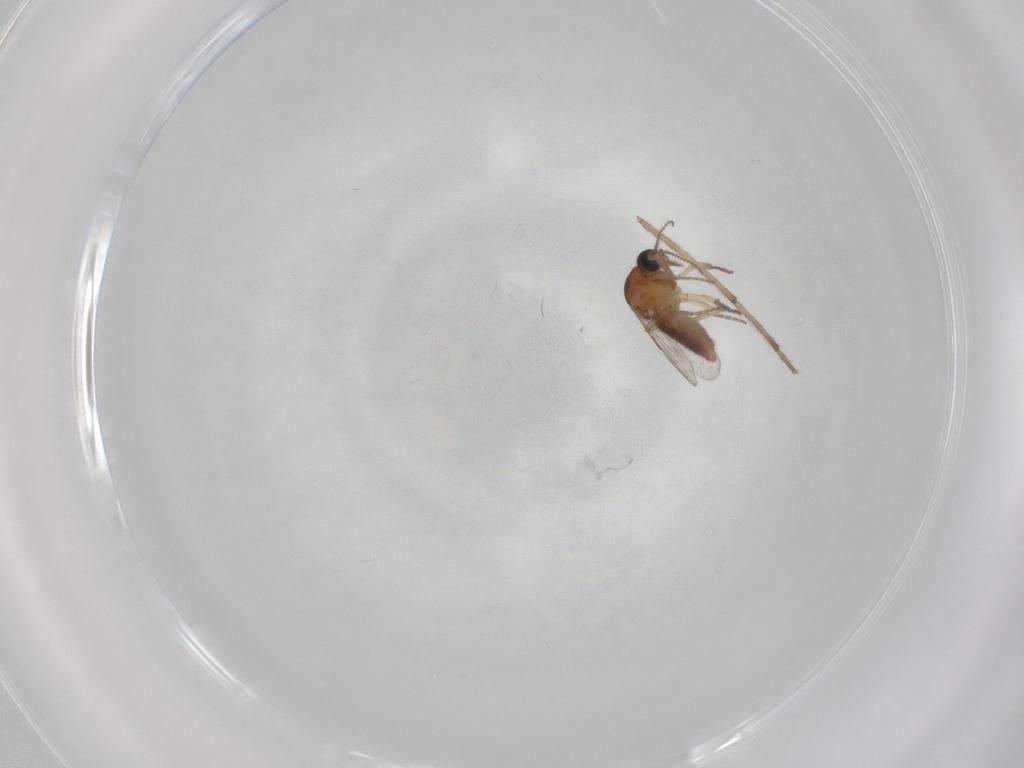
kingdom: Animalia
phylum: Arthropoda
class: Insecta
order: Diptera
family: Ceratopogonidae
